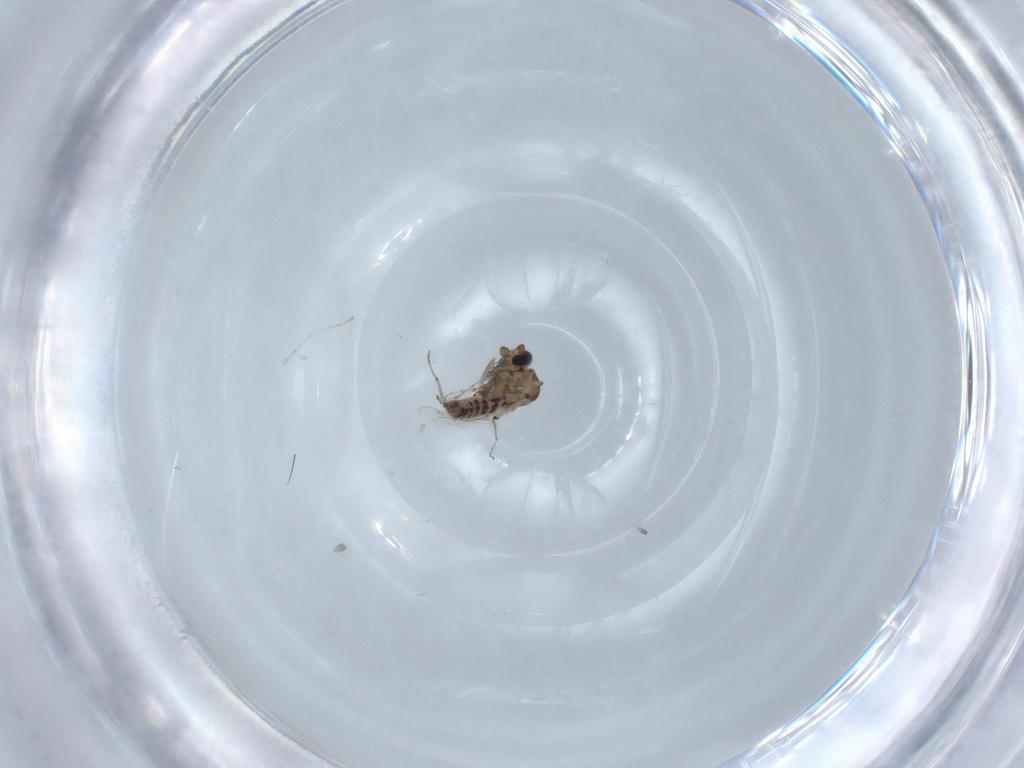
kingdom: Animalia
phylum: Arthropoda
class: Insecta
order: Diptera
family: Ceratopogonidae
